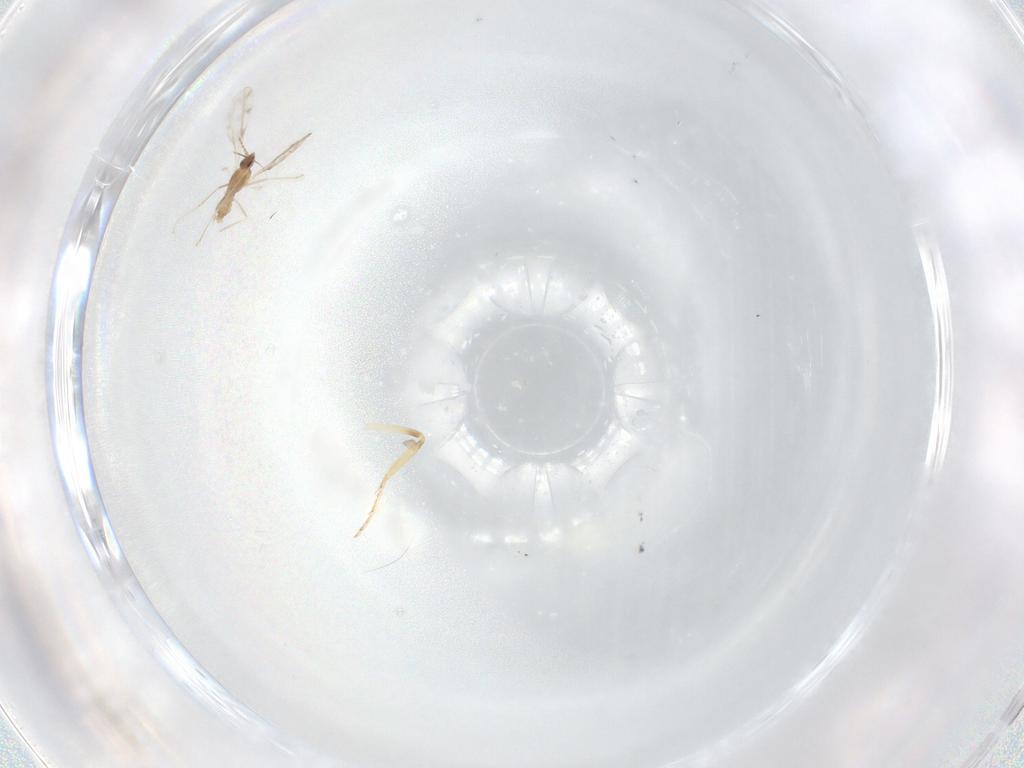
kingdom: Animalia
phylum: Arthropoda
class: Insecta
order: Diptera
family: Ceratopogonidae
